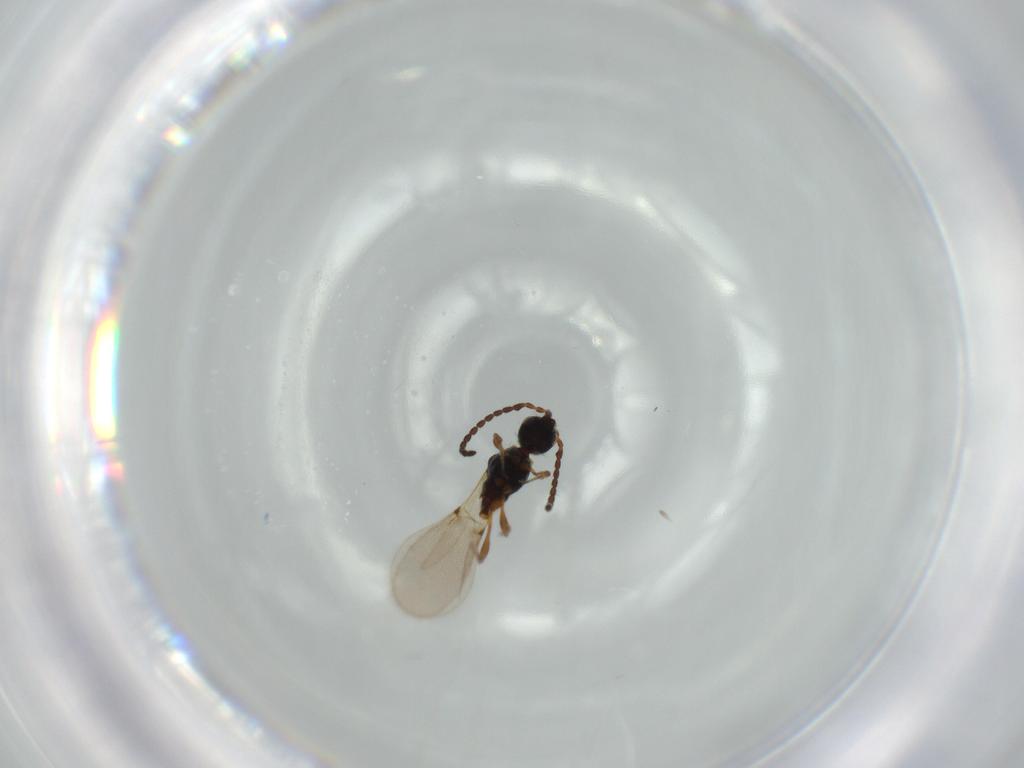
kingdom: Animalia
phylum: Arthropoda
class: Insecta
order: Hymenoptera
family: Diapriidae
